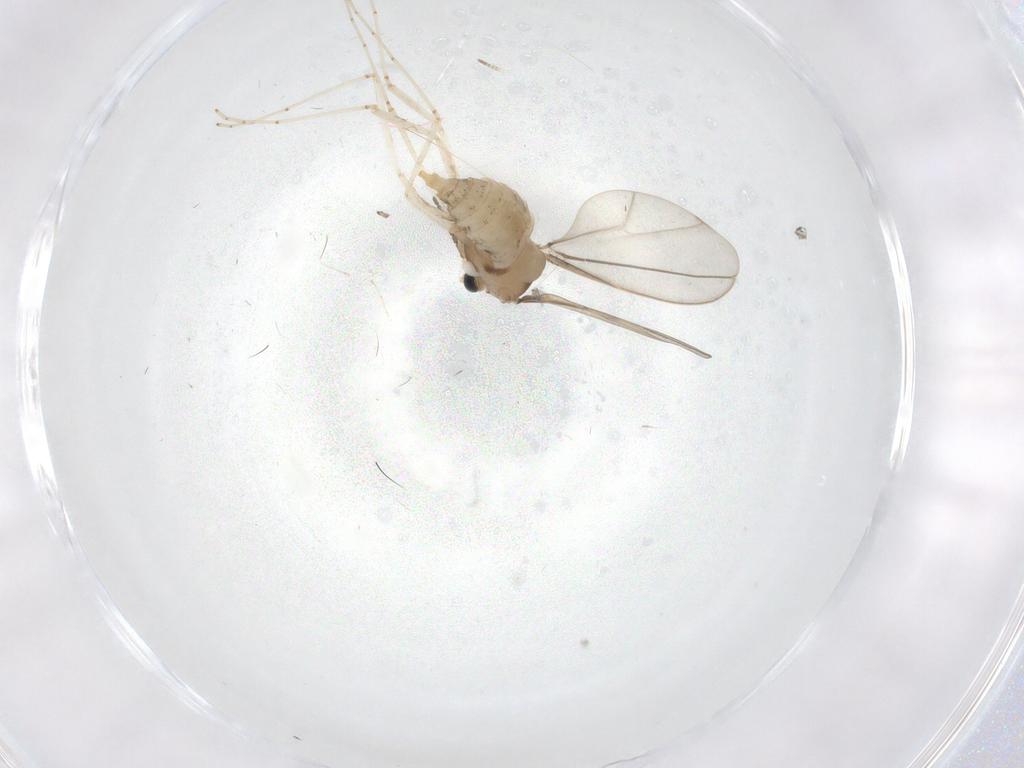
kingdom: Animalia
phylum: Arthropoda
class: Insecta
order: Diptera
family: Cecidomyiidae
